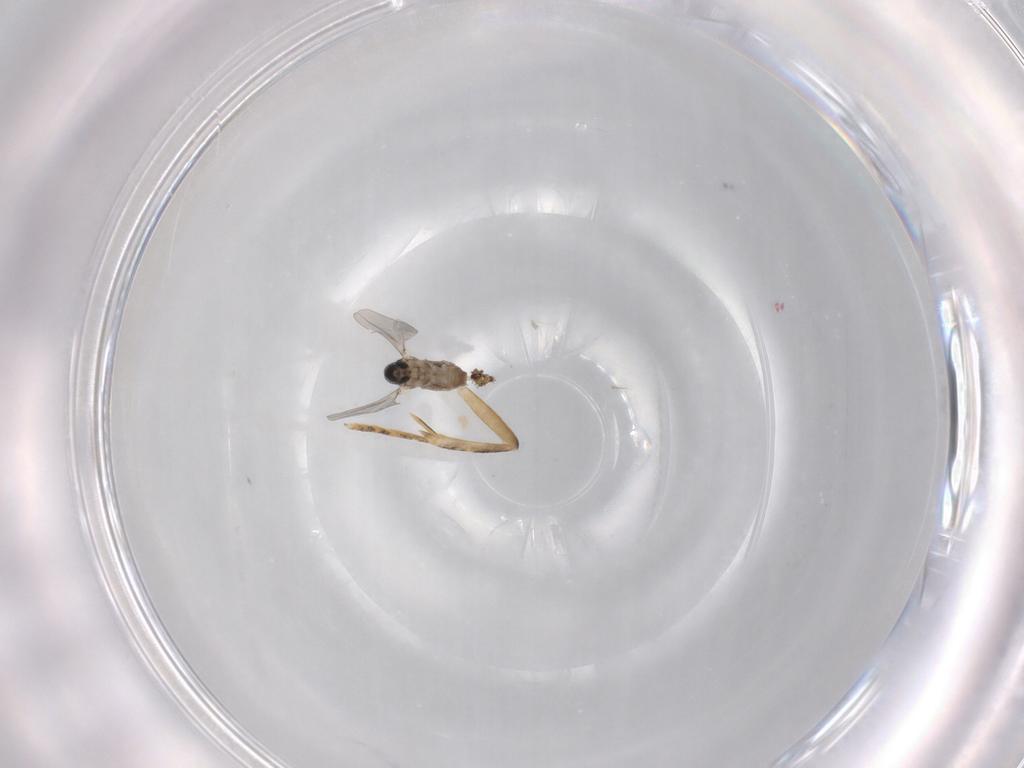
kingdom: Animalia
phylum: Arthropoda
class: Insecta
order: Diptera
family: Cecidomyiidae
